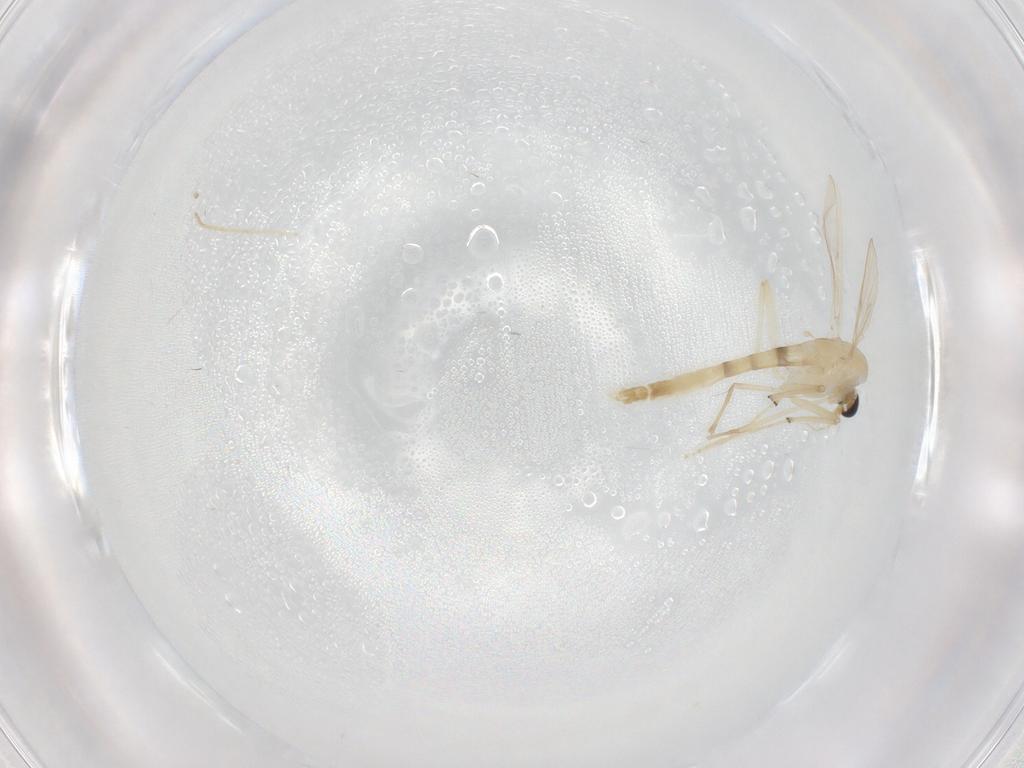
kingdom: Animalia
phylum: Arthropoda
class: Insecta
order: Diptera
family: Chironomidae
